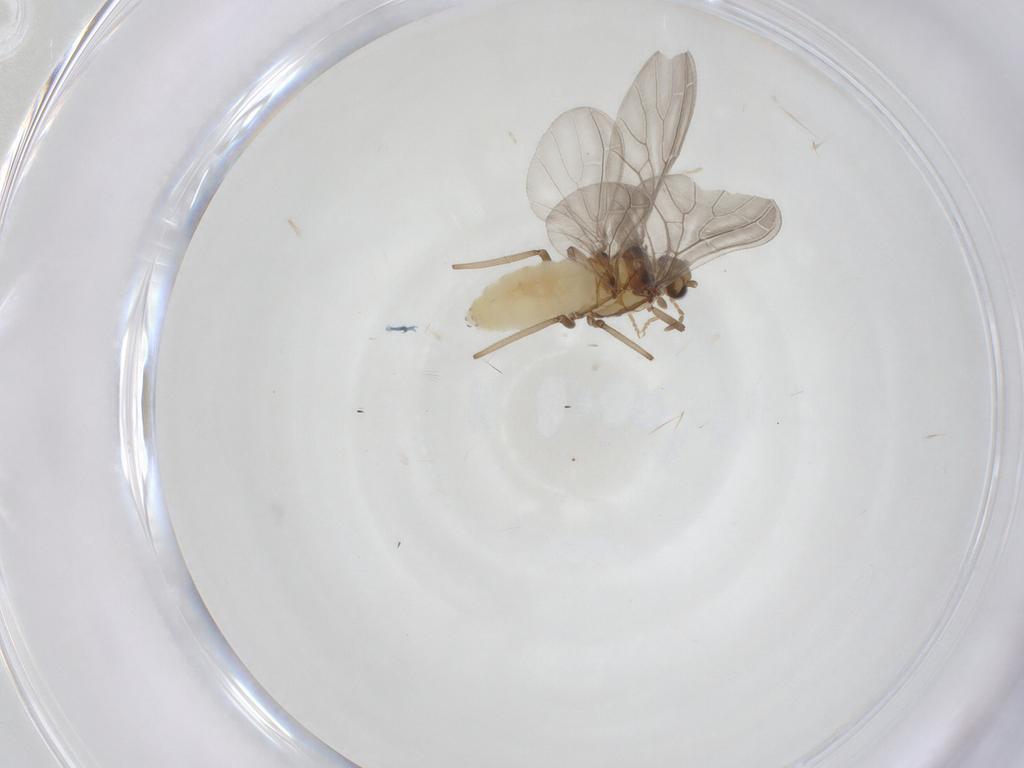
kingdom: Animalia
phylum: Arthropoda
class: Insecta
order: Neuroptera
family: Coniopterygidae
